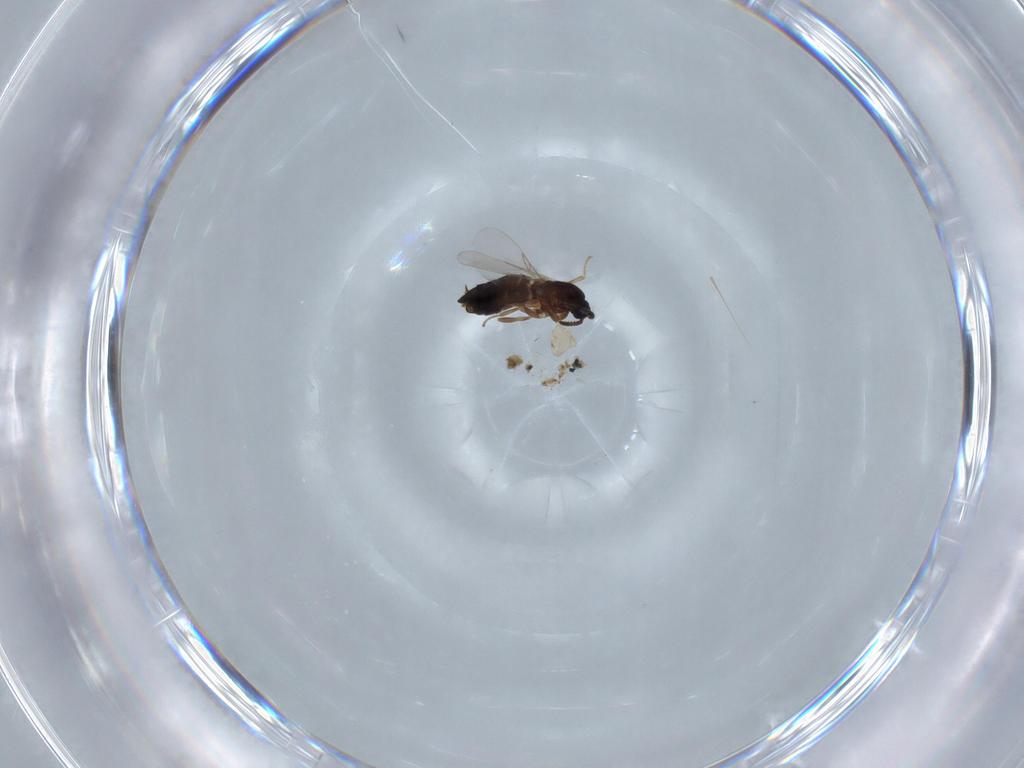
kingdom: Animalia
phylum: Arthropoda
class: Insecta
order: Diptera
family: Scatopsidae
